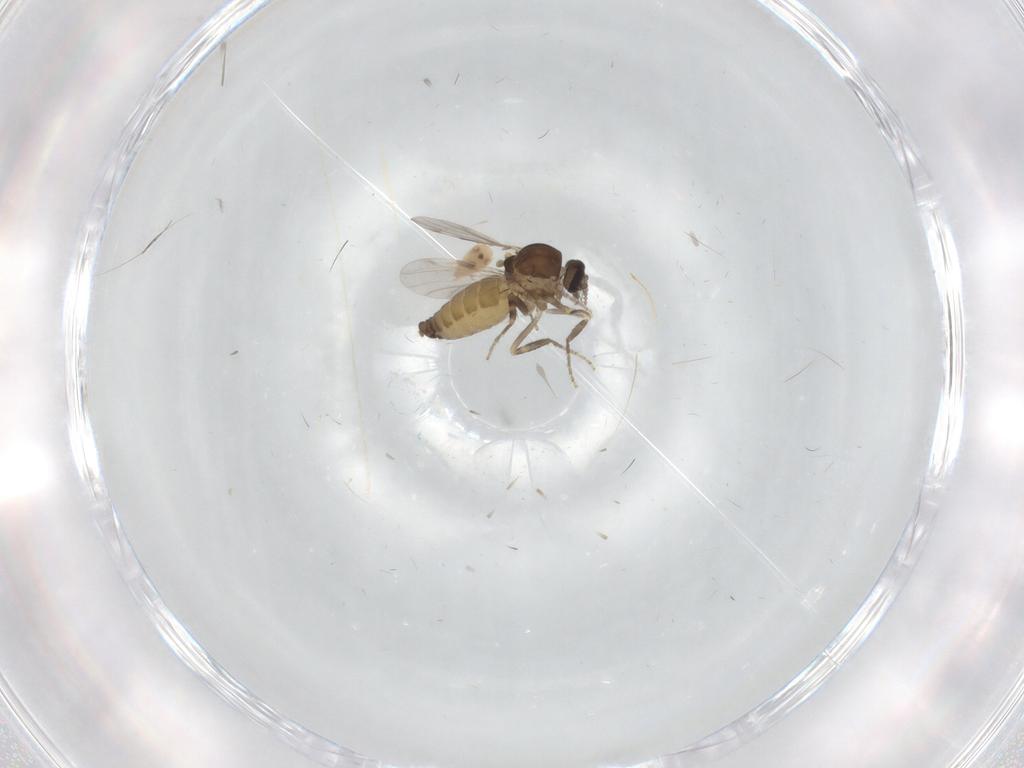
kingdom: Animalia
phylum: Arthropoda
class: Insecta
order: Diptera
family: Ceratopogonidae
